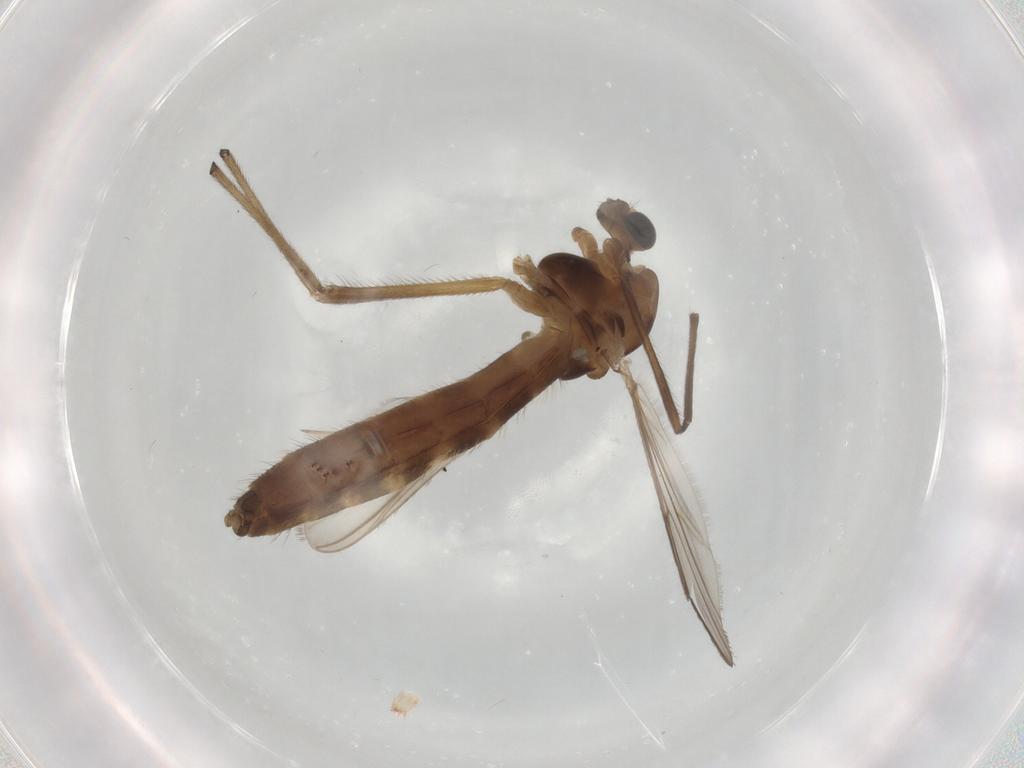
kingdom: Animalia
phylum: Arthropoda
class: Insecta
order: Diptera
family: Chironomidae
